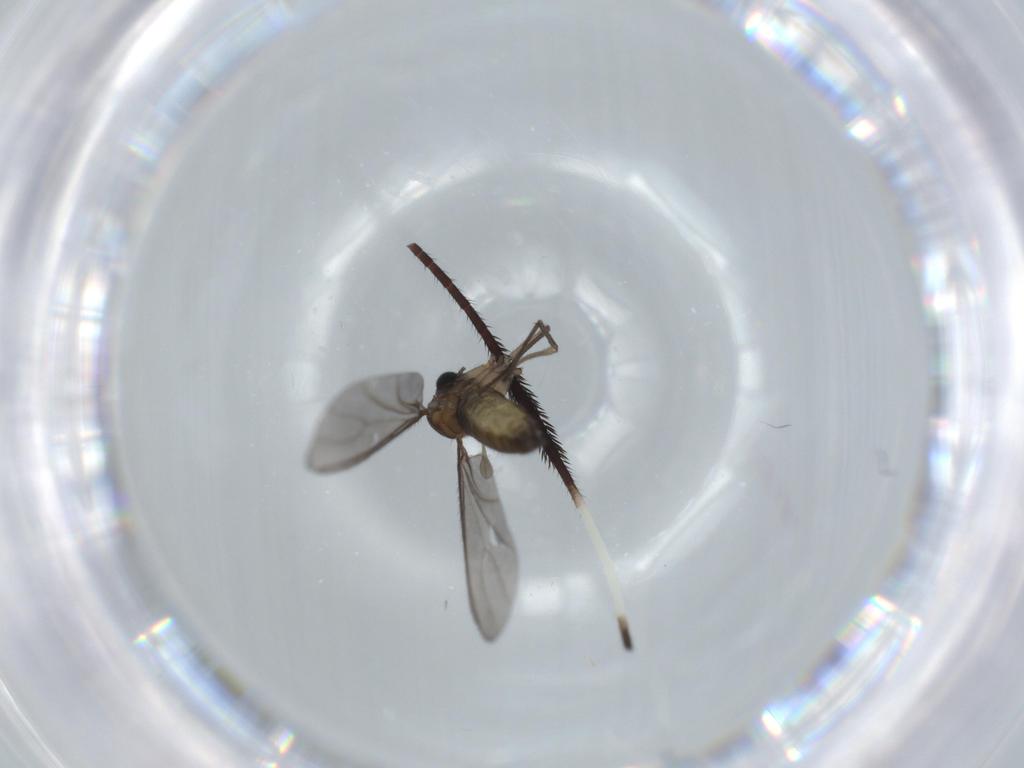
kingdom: Animalia
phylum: Arthropoda
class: Insecta
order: Diptera
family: Sciaridae
